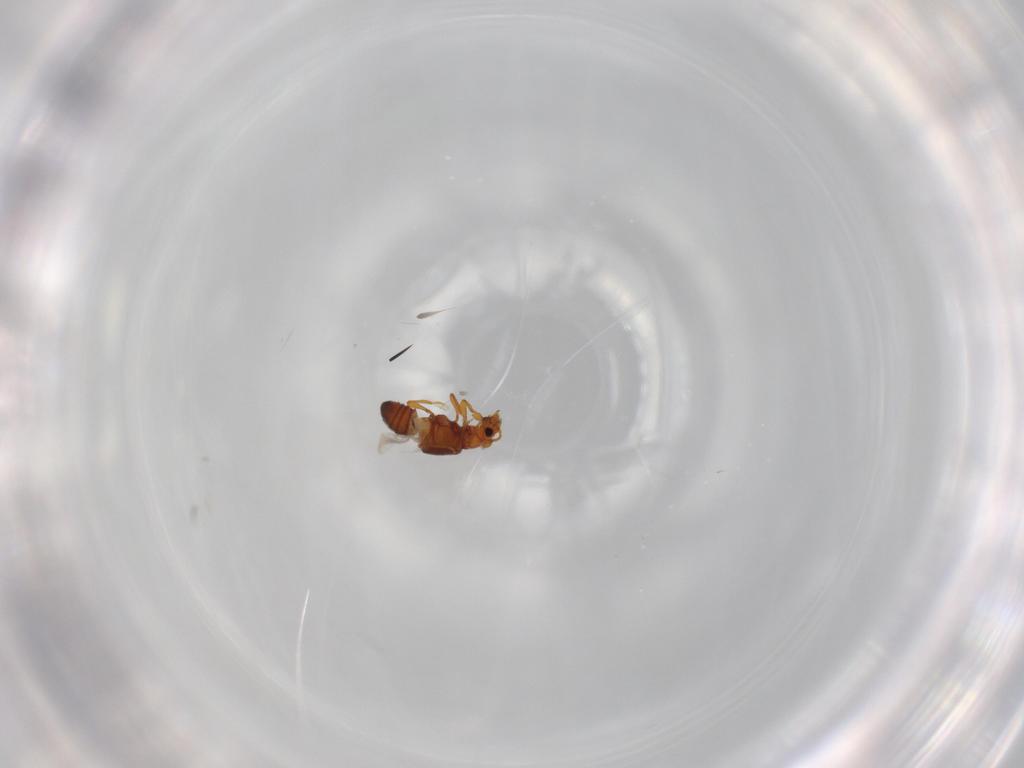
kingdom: Animalia
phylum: Arthropoda
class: Insecta
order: Coleoptera
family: Staphylinidae
